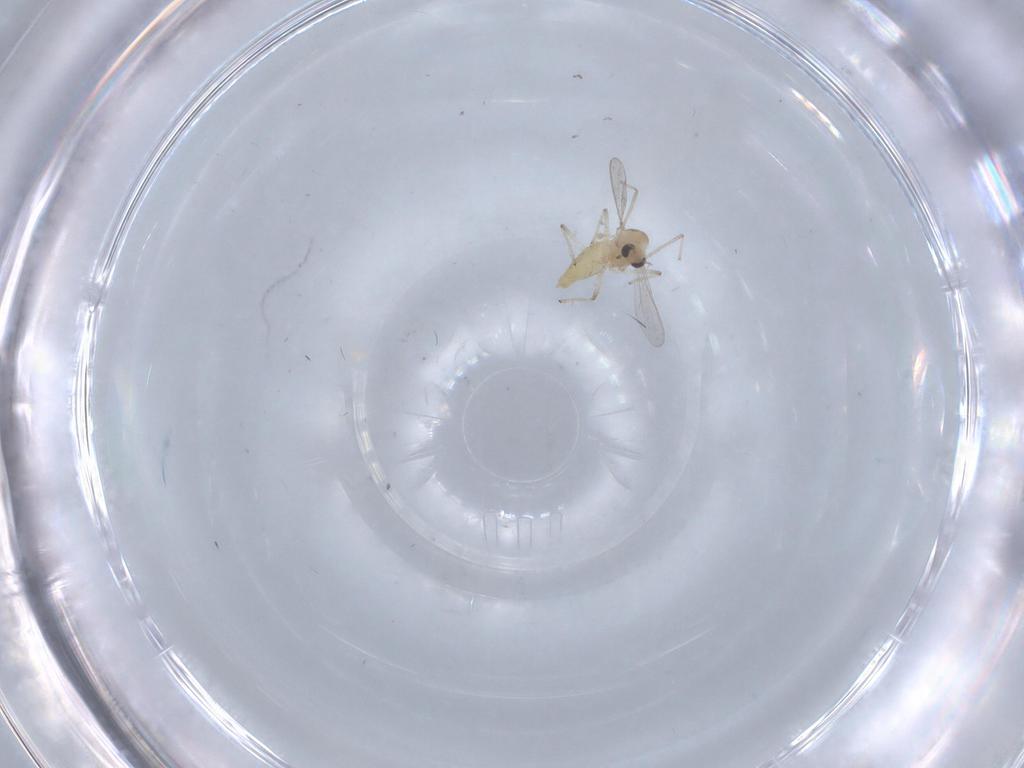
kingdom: Animalia
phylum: Arthropoda
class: Insecta
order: Diptera
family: Chironomidae
